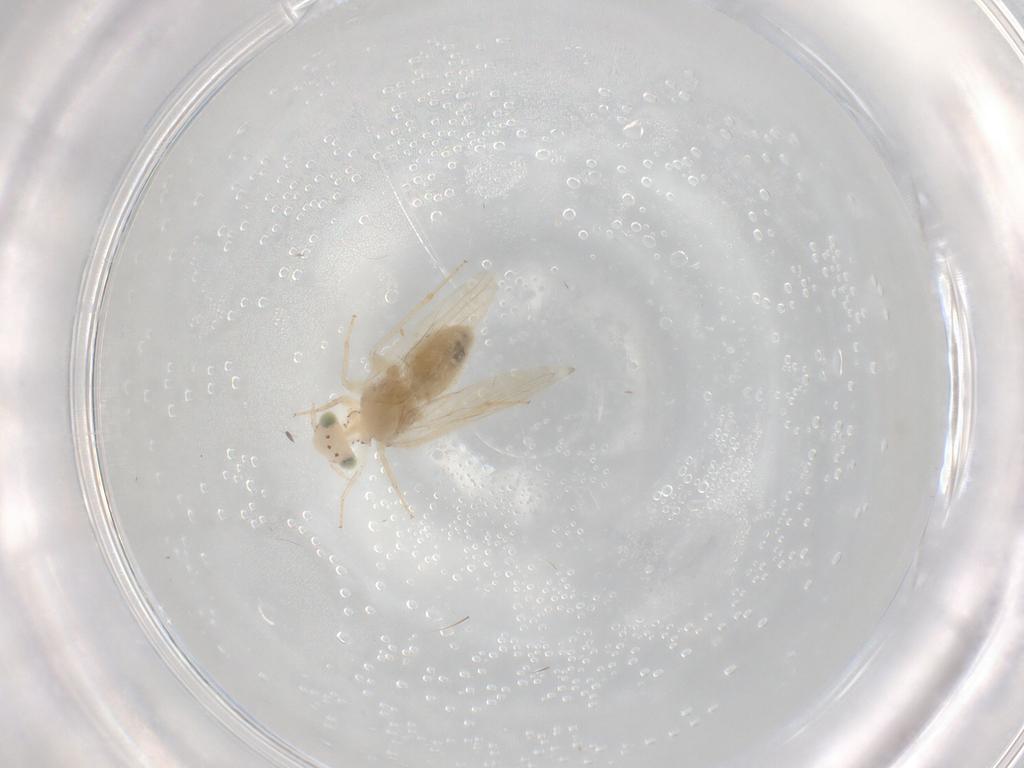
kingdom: Animalia
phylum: Arthropoda
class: Insecta
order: Psocodea
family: Lepidopsocidae
